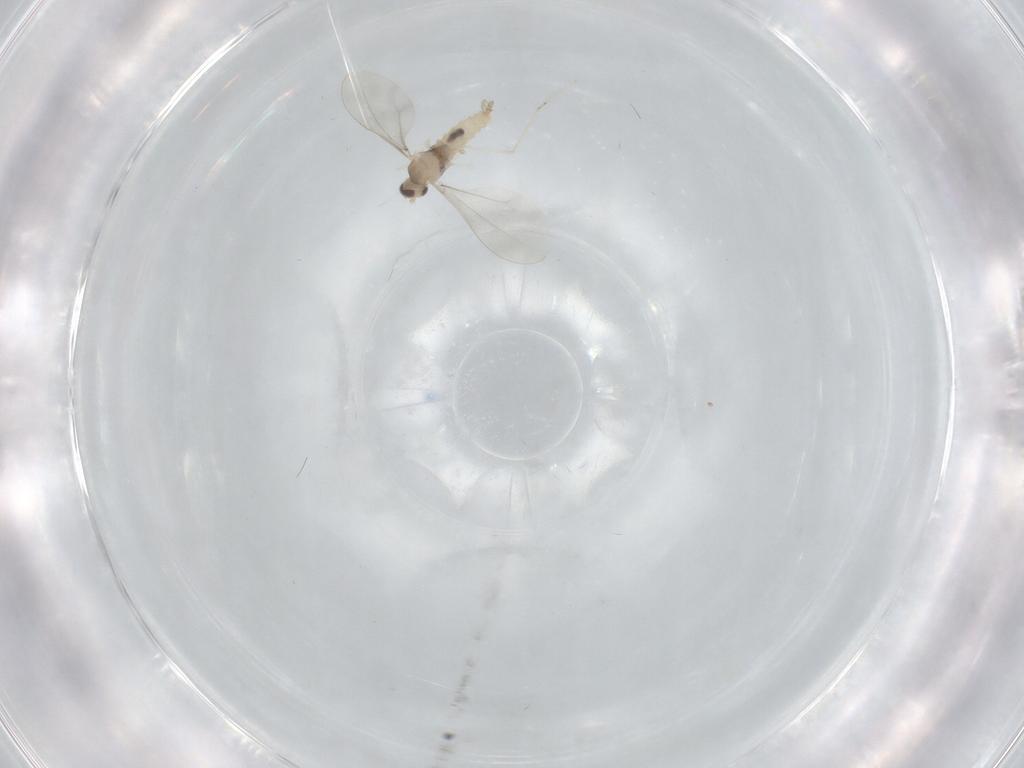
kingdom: Animalia
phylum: Arthropoda
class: Insecta
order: Diptera
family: Cecidomyiidae
